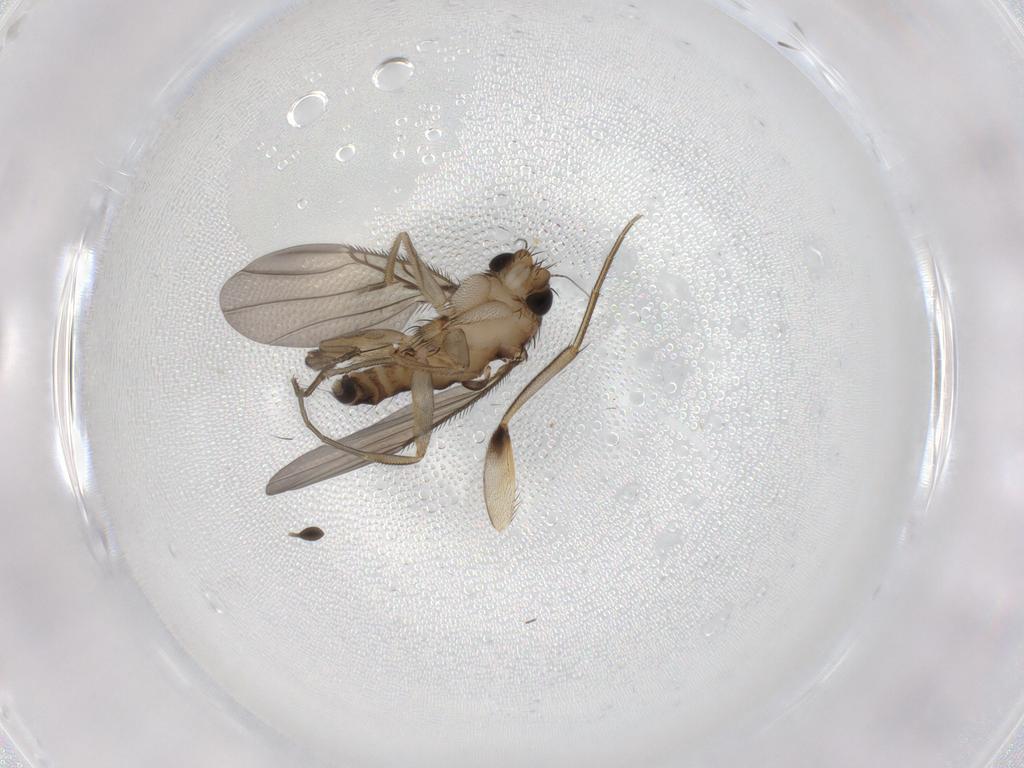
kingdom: Animalia
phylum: Arthropoda
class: Insecta
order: Diptera
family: Phoridae
